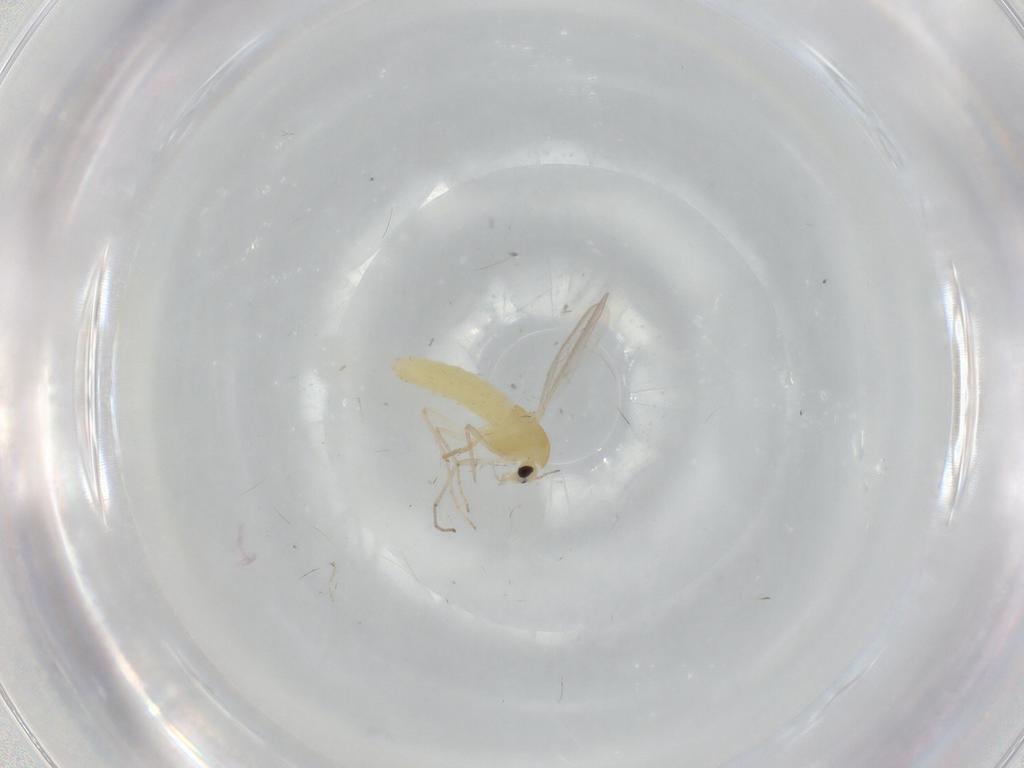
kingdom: Animalia
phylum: Arthropoda
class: Insecta
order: Diptera
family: Chironomidae
